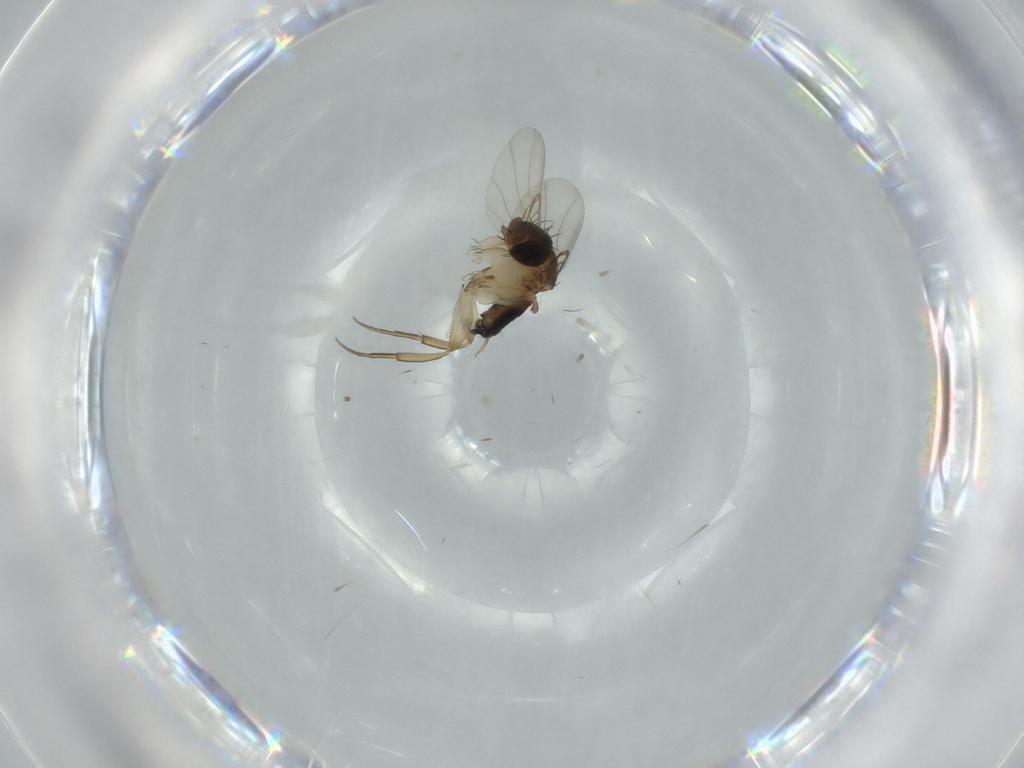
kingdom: Animalia
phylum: Arthropoda
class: Insecta
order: Diptera
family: Phoridae
